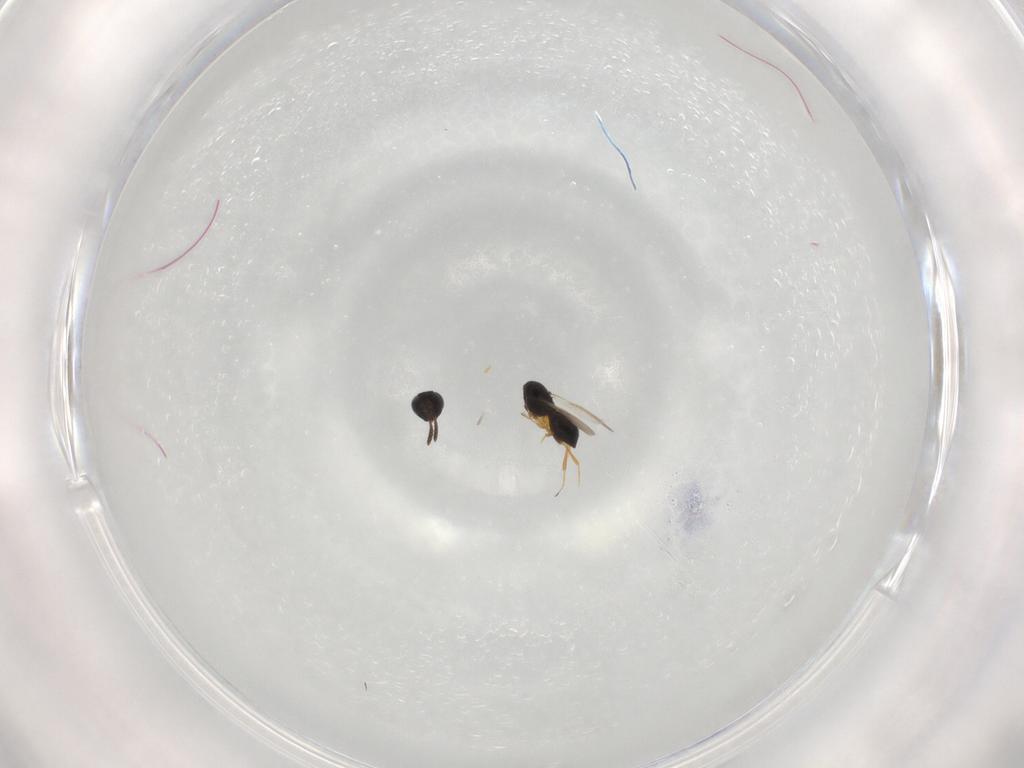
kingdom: Animalia
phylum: Arthropoda
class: Insecta
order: Hymenoptera
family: Scelionidae
